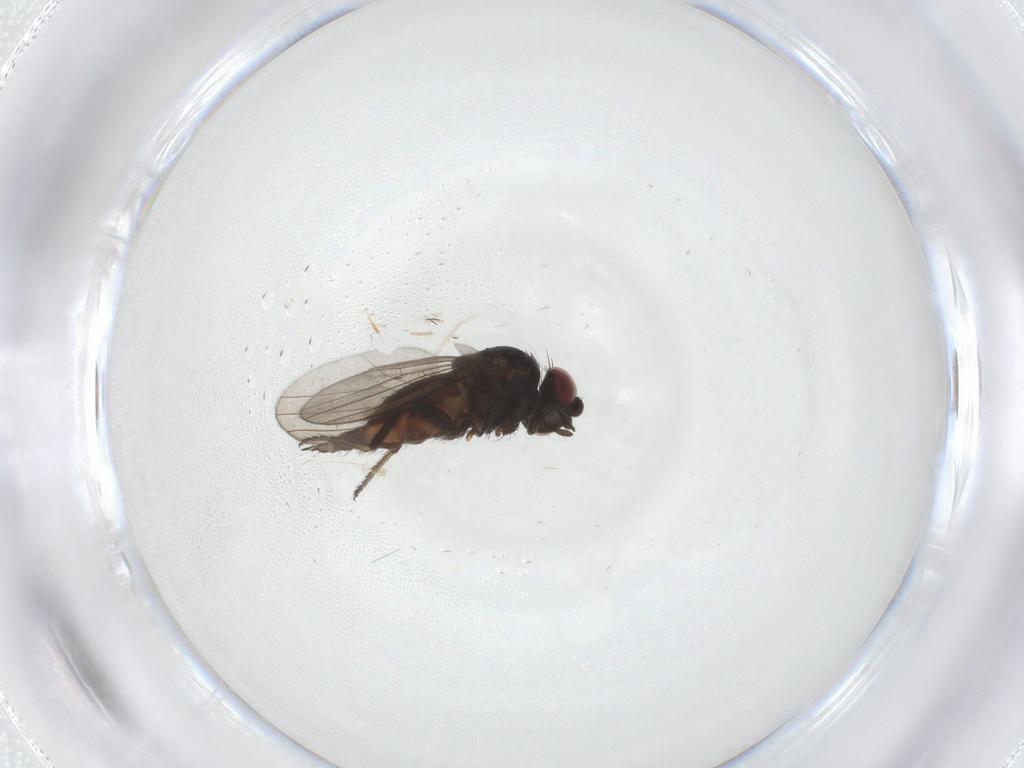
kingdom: Animalia
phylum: Arthropoda
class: Insecta
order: Diptera
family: Milichiidae
